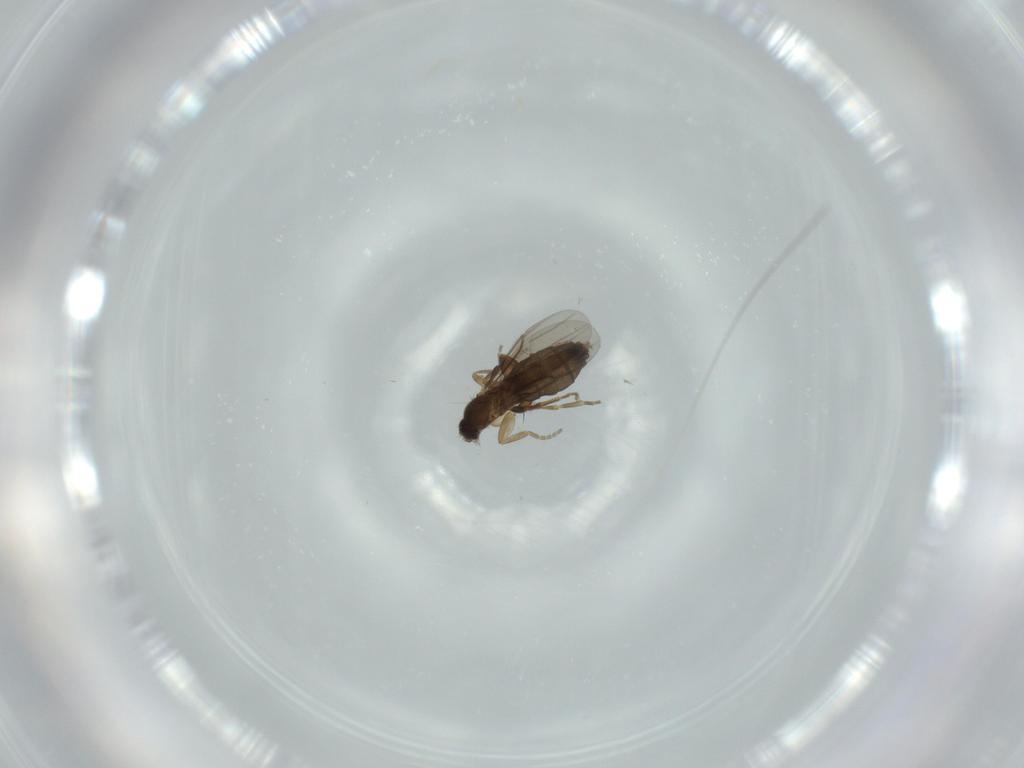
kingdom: Animalia
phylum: Arthropoda
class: Insecta
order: Diptera
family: Phoridae
